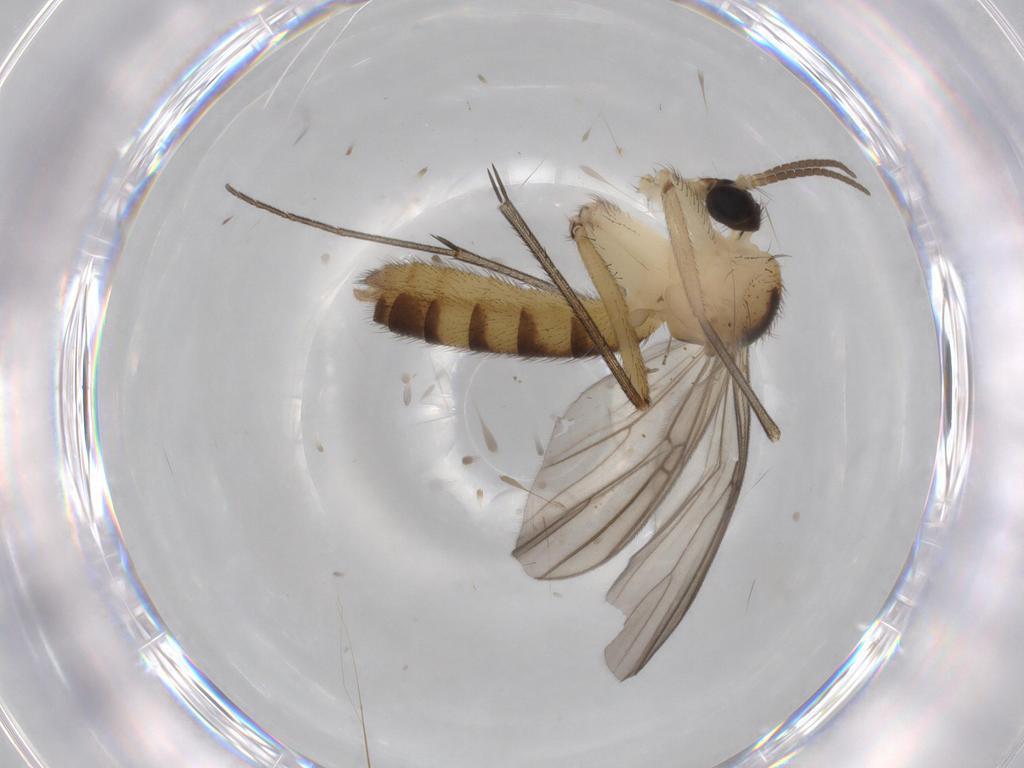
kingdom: Animalia
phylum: Arthropoda
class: Insecta
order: Diptera
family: Mycetophilidae
